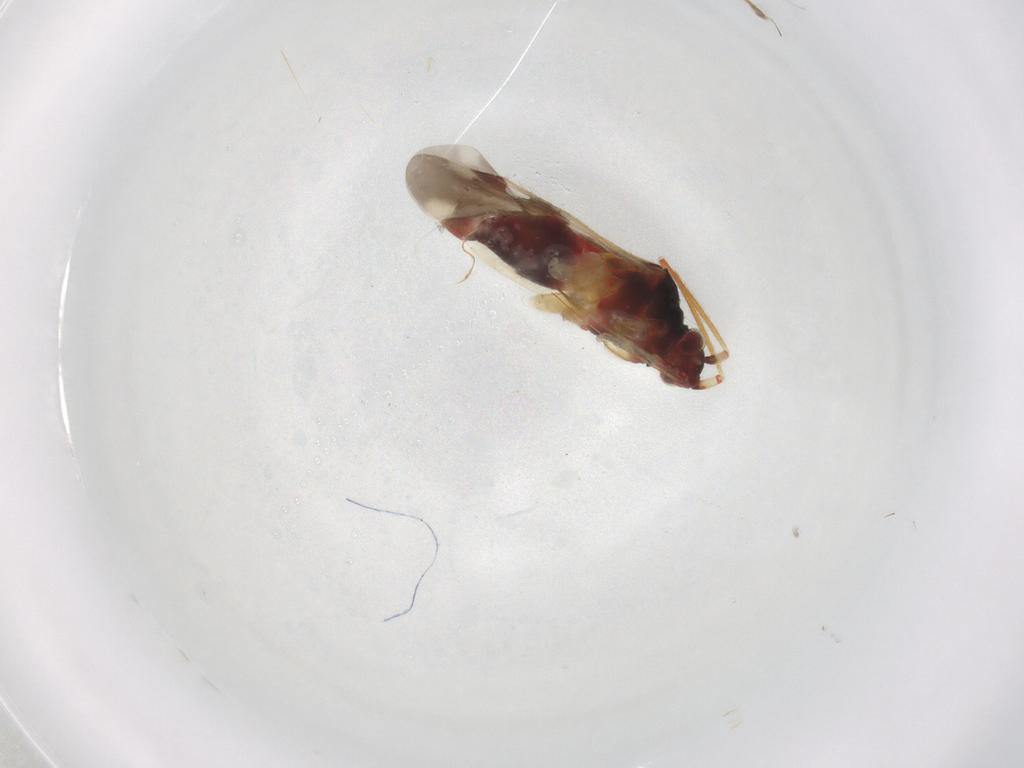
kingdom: Animalia
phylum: Arthropoda
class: Insecta
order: Hemiptera
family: Miridae
